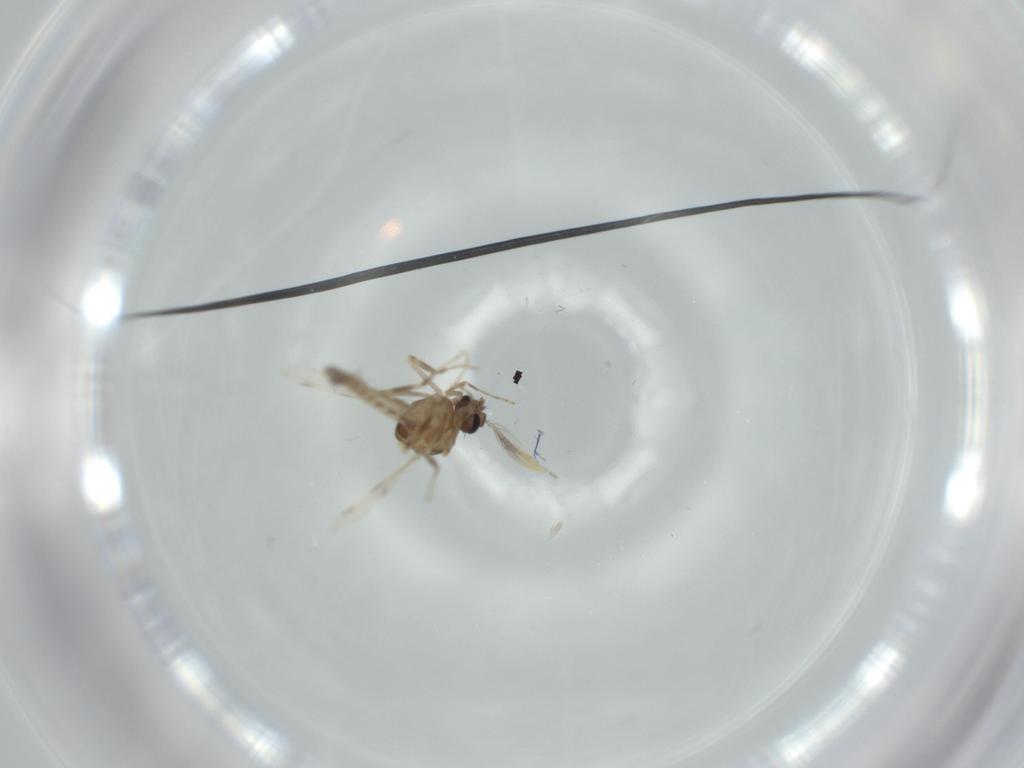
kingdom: Animalia
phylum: Arthropoda
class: Insecta
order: Diptera
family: Ceratopogonidae
